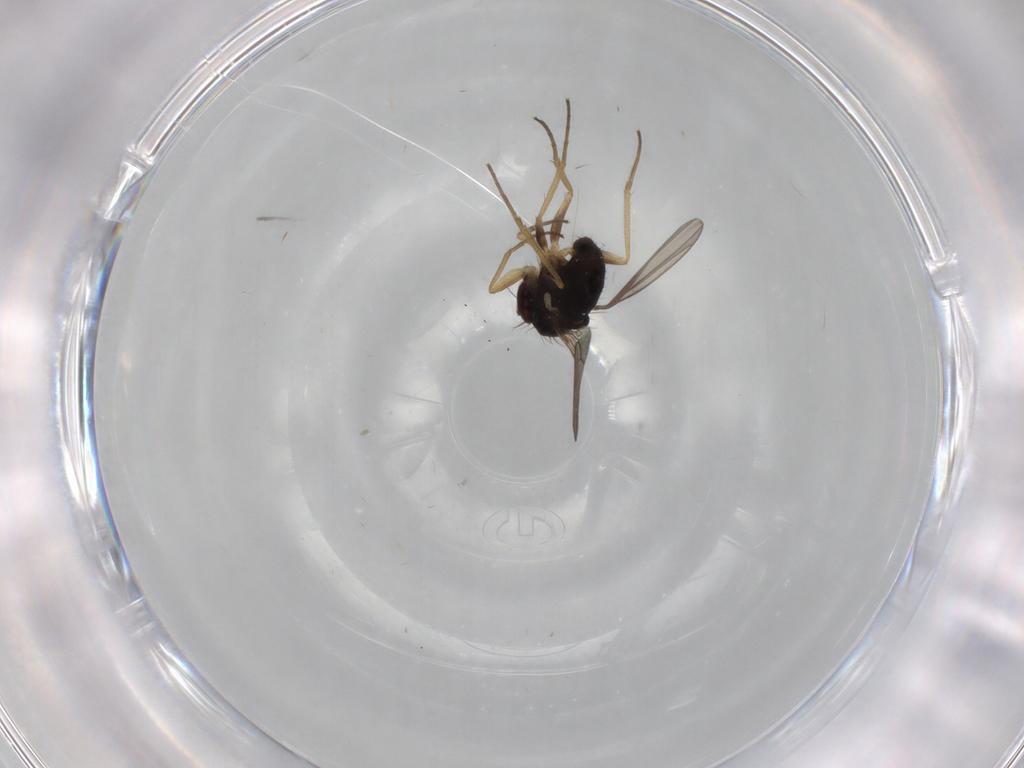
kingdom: Animalia
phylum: Arthropoda
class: Insecta
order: Diptera
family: Dolichopodidae
